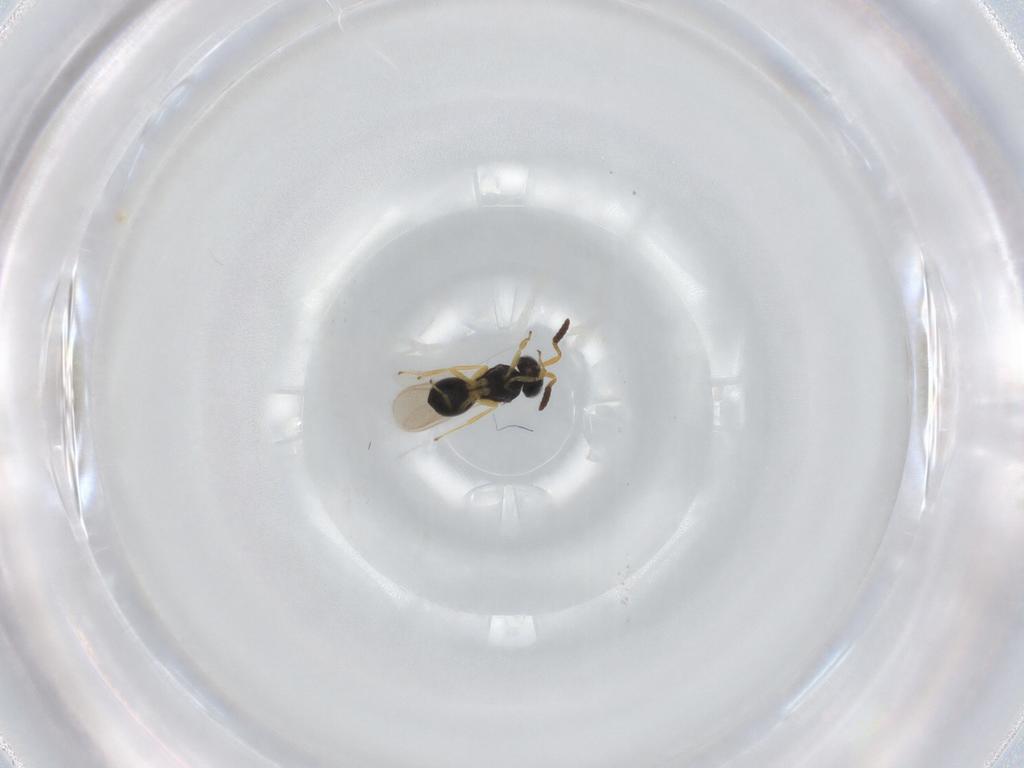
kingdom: Animalia
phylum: Arthropoda
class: Insecta
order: Hymenoptera
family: Scelionidae
